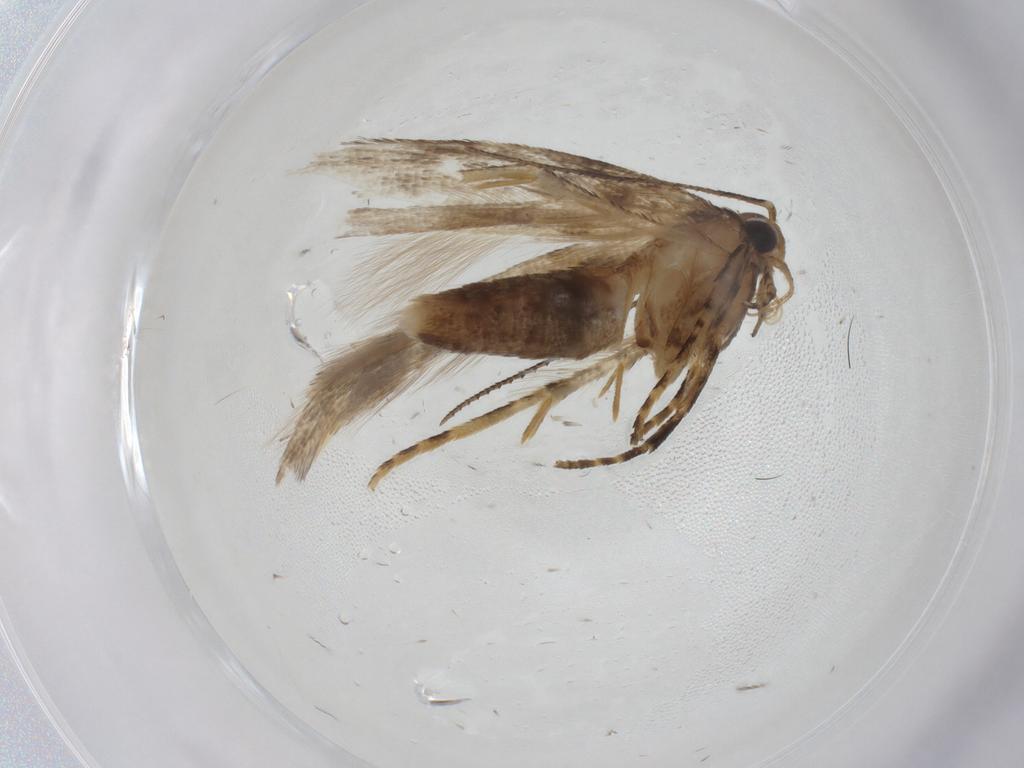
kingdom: Animalia
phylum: Arthropoda
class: Insecta
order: Lepidoptera
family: Gelechiidae
